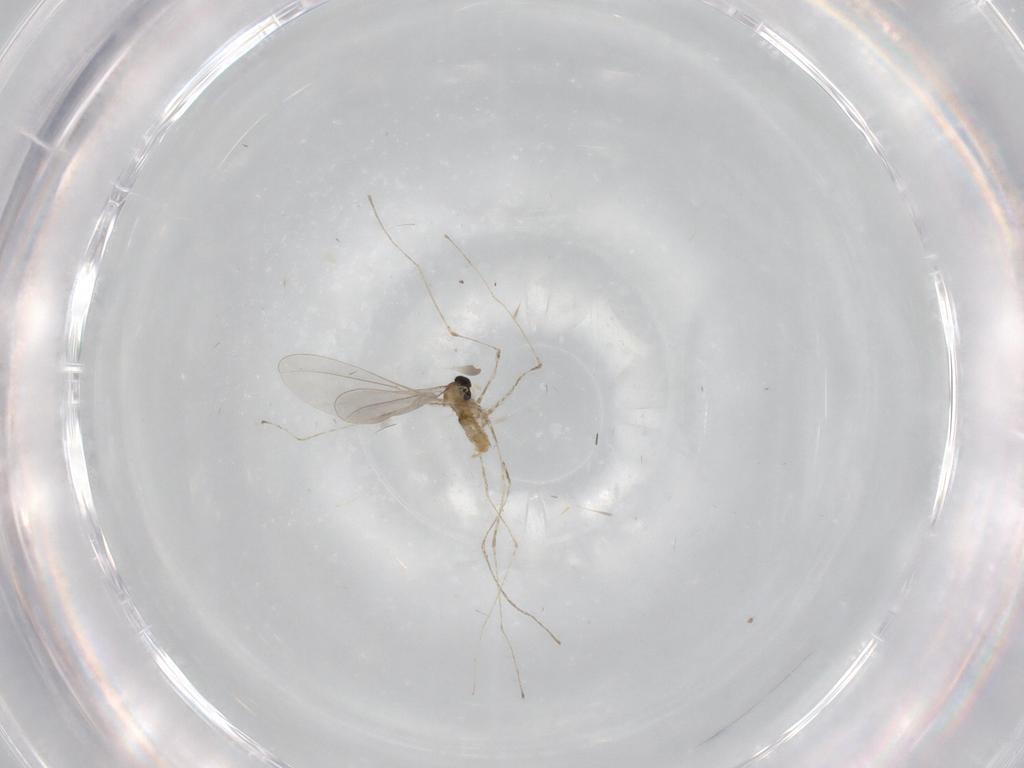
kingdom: Animalia
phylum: Arthropoda
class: Insecta
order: Diptera
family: Cecidomyiidae
